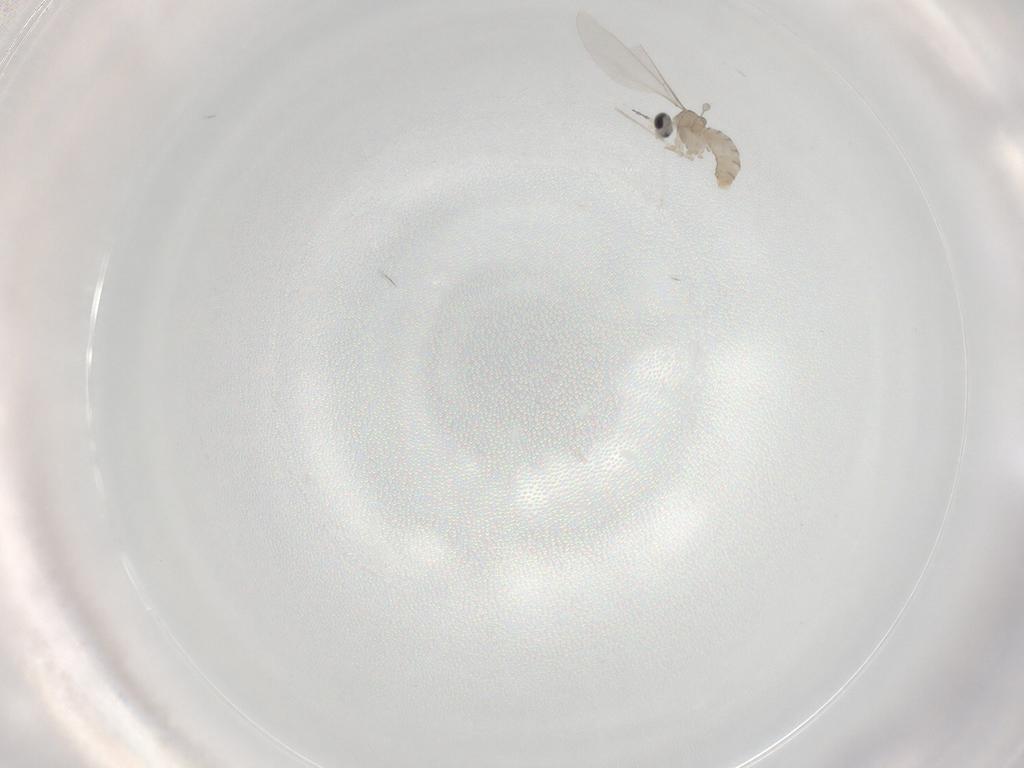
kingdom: Animalia
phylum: Arthropoda
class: Insecta
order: Diptera
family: Cecidomyiidae
